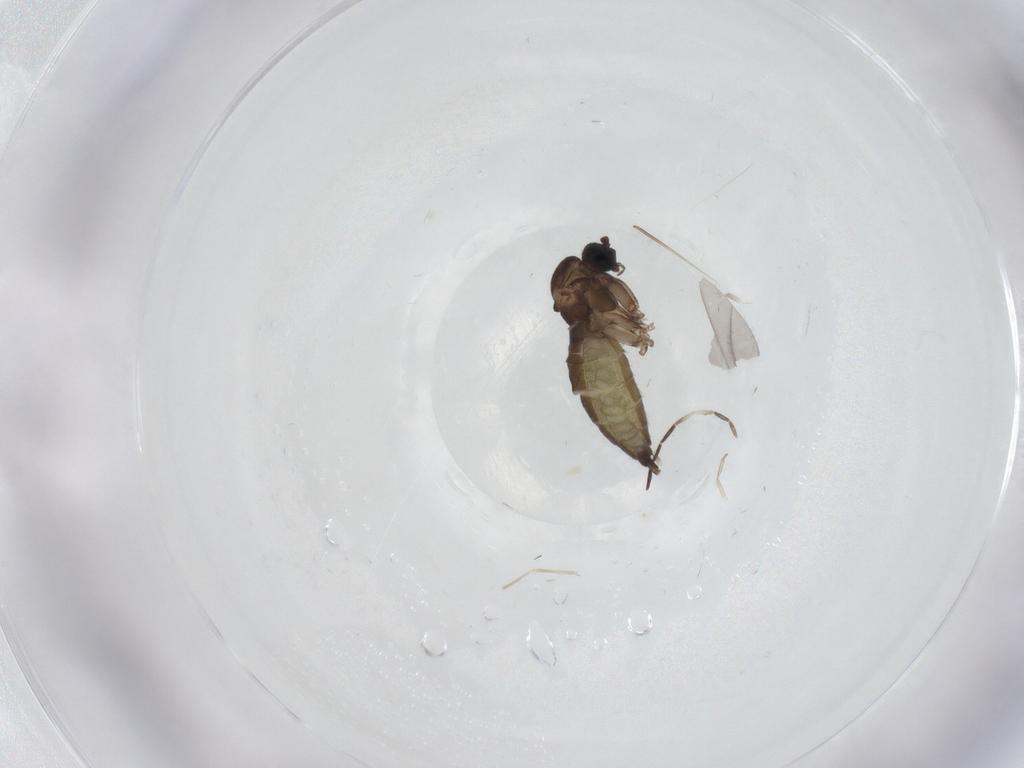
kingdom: Animalia
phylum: Arthropoda
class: Insecta
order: Diptera
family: Sciaridae
